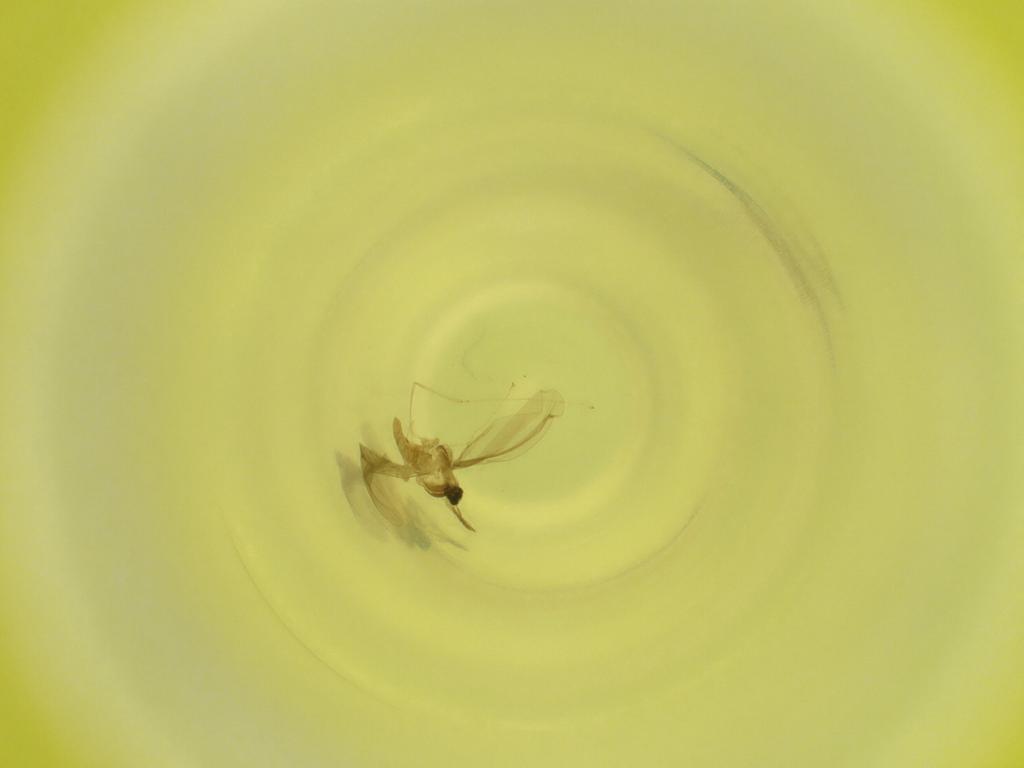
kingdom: Animalia
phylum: Arthropoda
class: Insecta
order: Diptera
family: Cecidomyiidae
